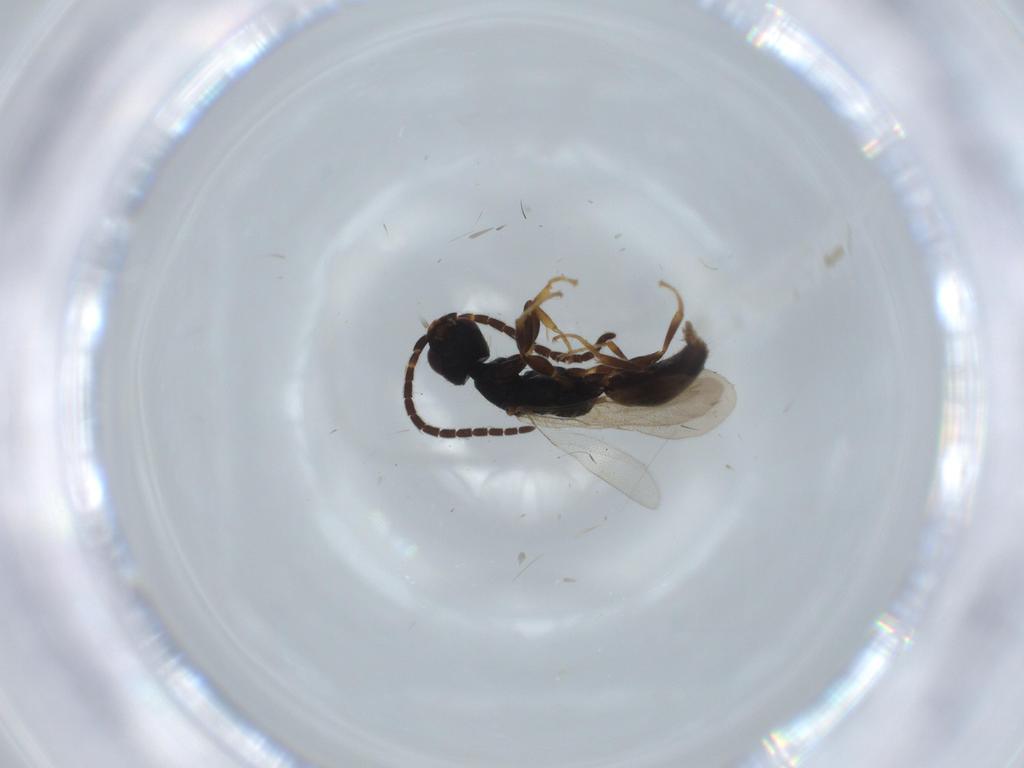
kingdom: Animalia
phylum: Arthropoda
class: Insecta
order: Hymenoptera
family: Bethylidae
